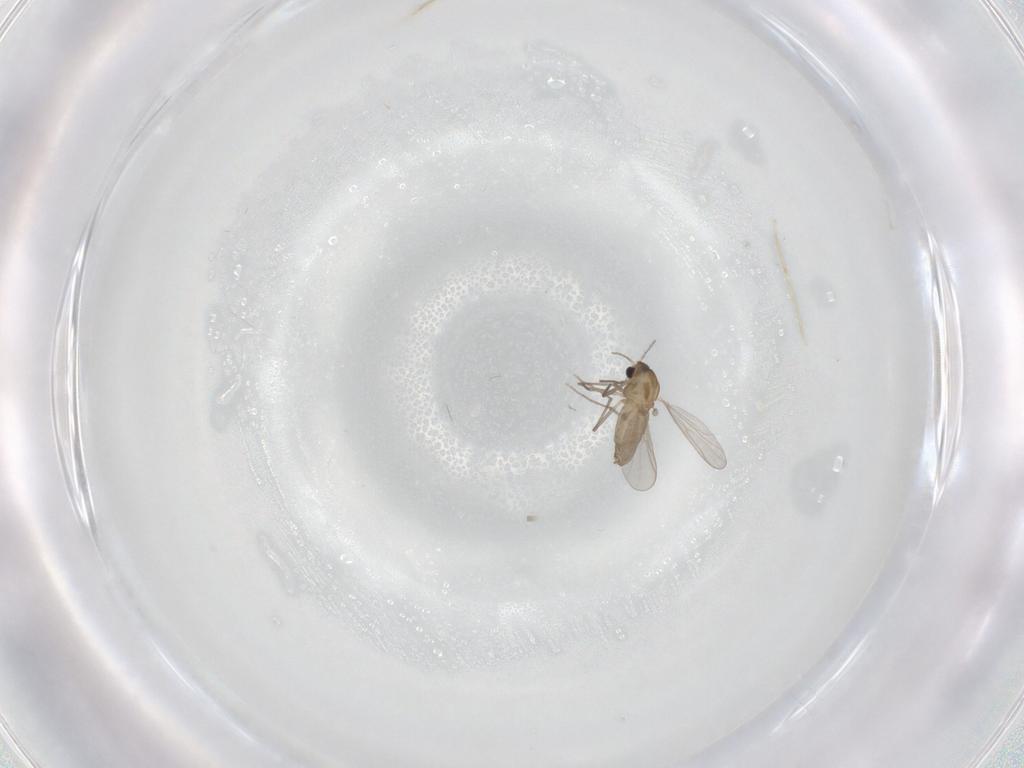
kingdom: Animalia
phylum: Arthropoda
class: Insecta
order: Diptera
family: Chironomidae
